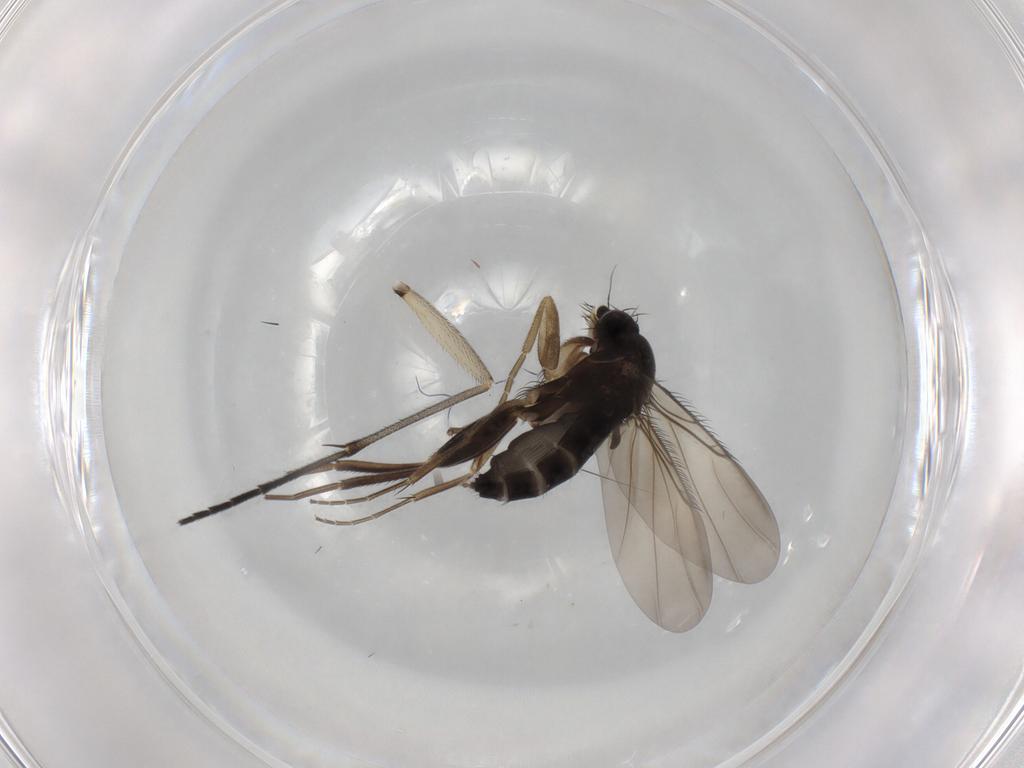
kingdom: Animalia
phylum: Arthropoda
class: Insecta
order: Diptera
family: Phoridae
